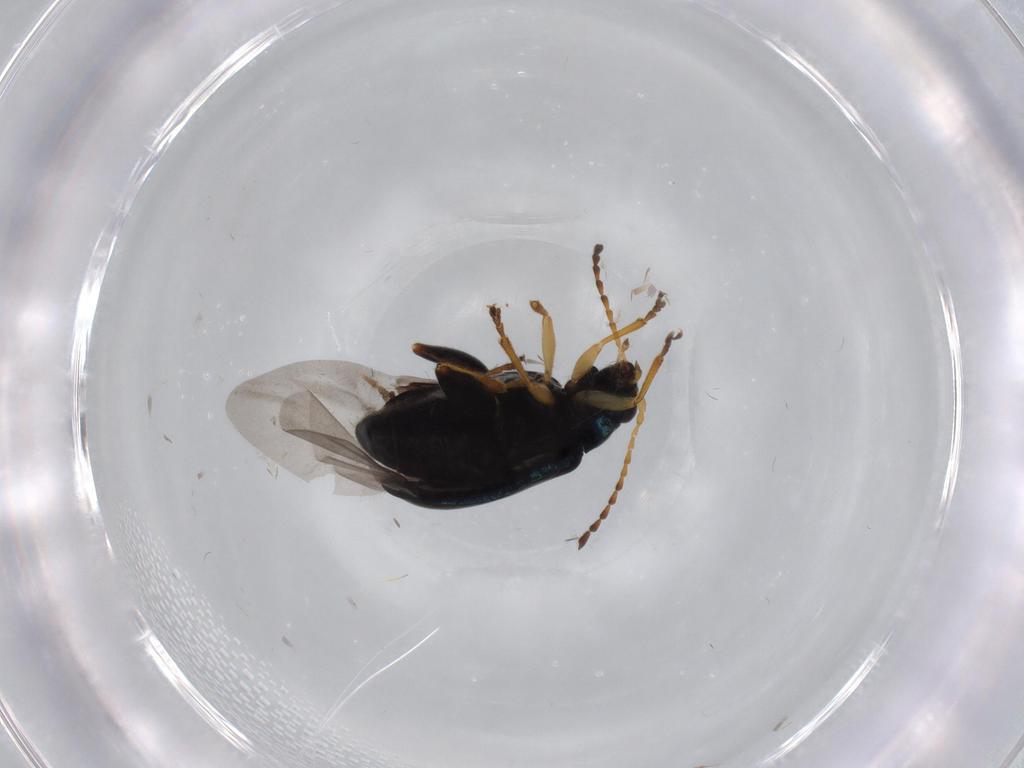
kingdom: Animalia
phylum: Arthropoda
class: Insecta
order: Coleoptera
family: Chrysomelidae
